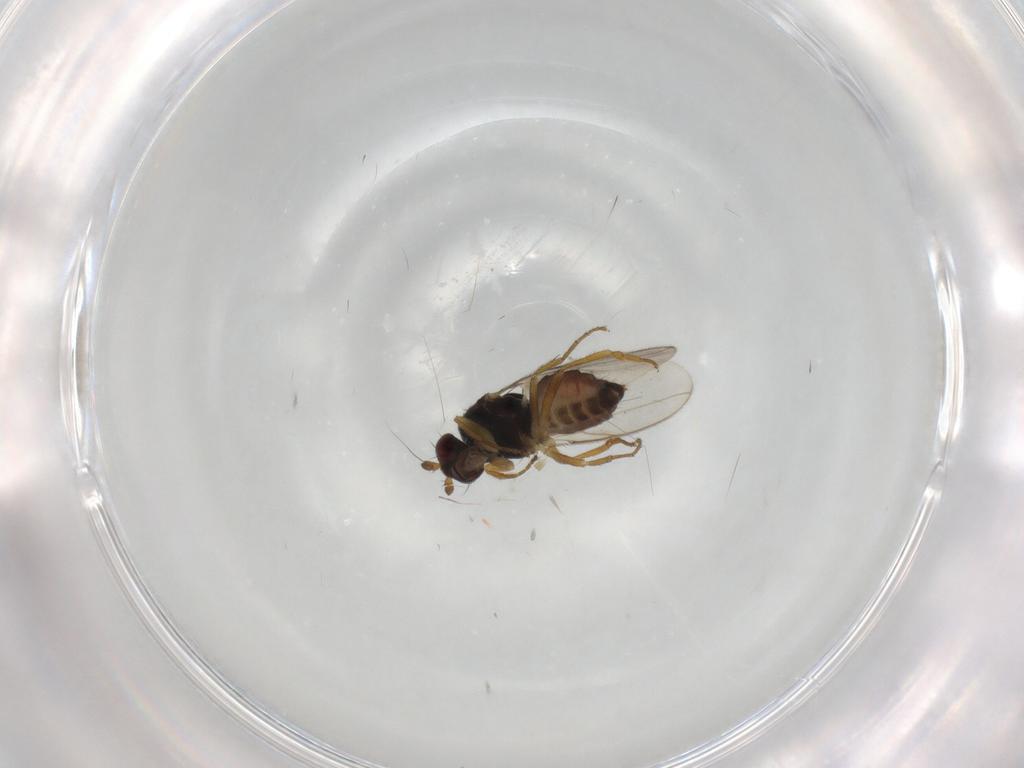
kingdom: Animalia
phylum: Arthropoda
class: Insecta
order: Diptera
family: Sphaeroceridae
